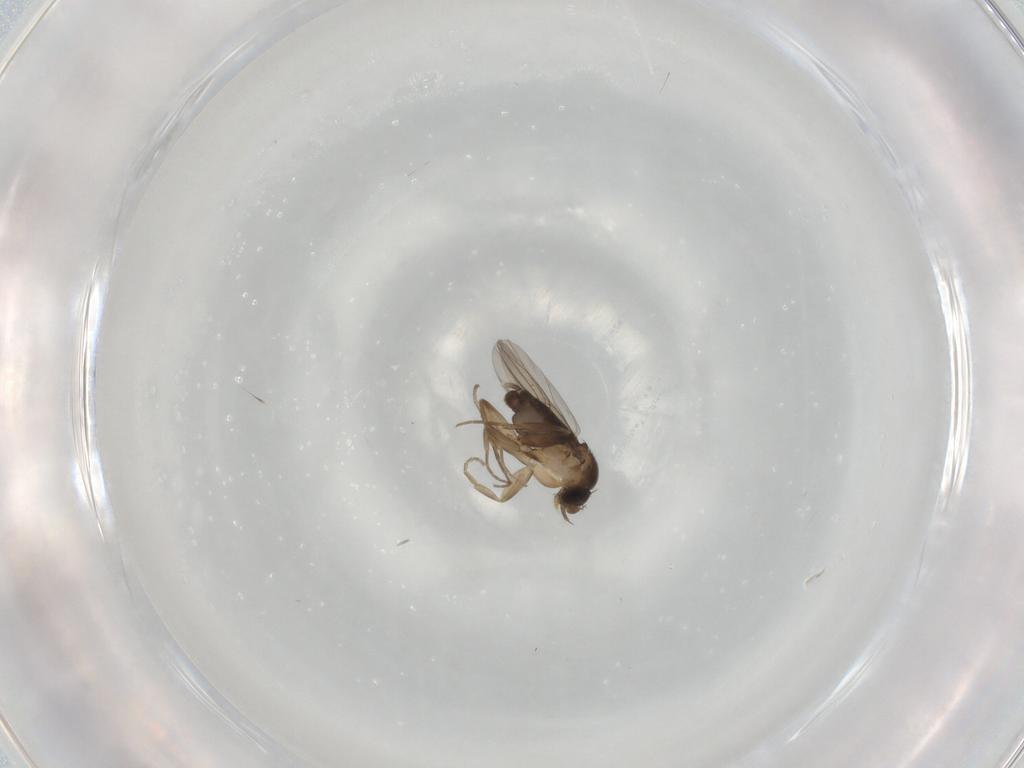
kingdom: Animalia
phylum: Arthropoda
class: Insecta
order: Diptera
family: Phoridae
